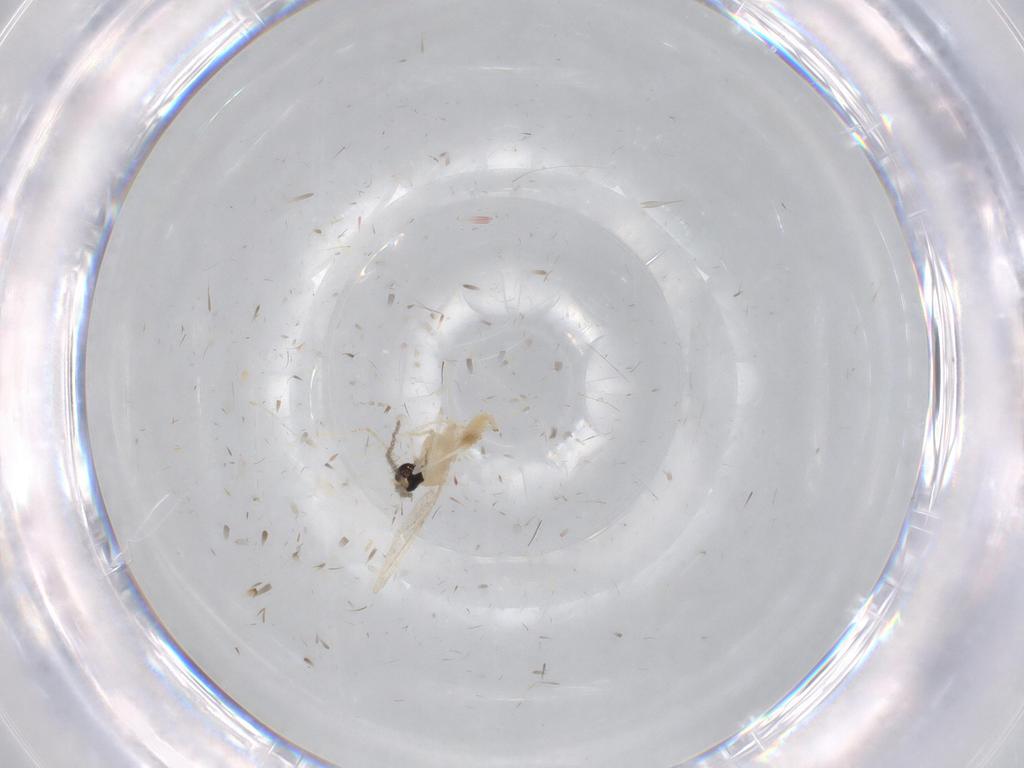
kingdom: Animalia
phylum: Arthropoda
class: Insecta
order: Diptera
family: Cecidomyiidae
